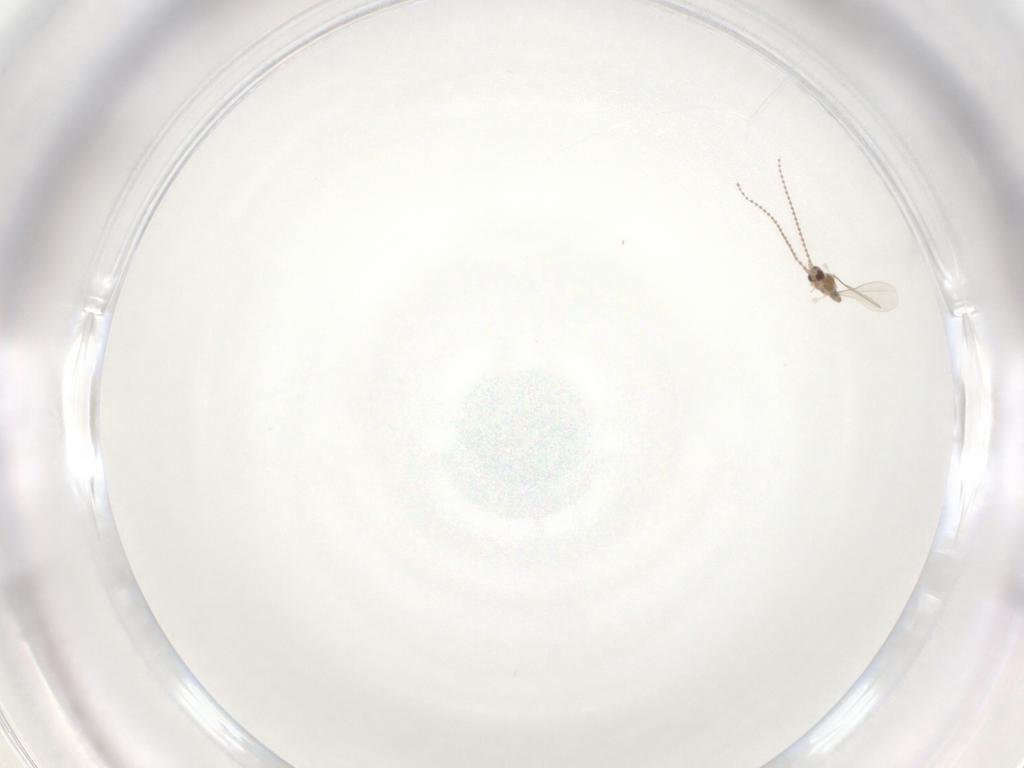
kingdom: Animalia
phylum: Arthropoda
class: Insecta
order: Diptera
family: Cecidomyiidae
